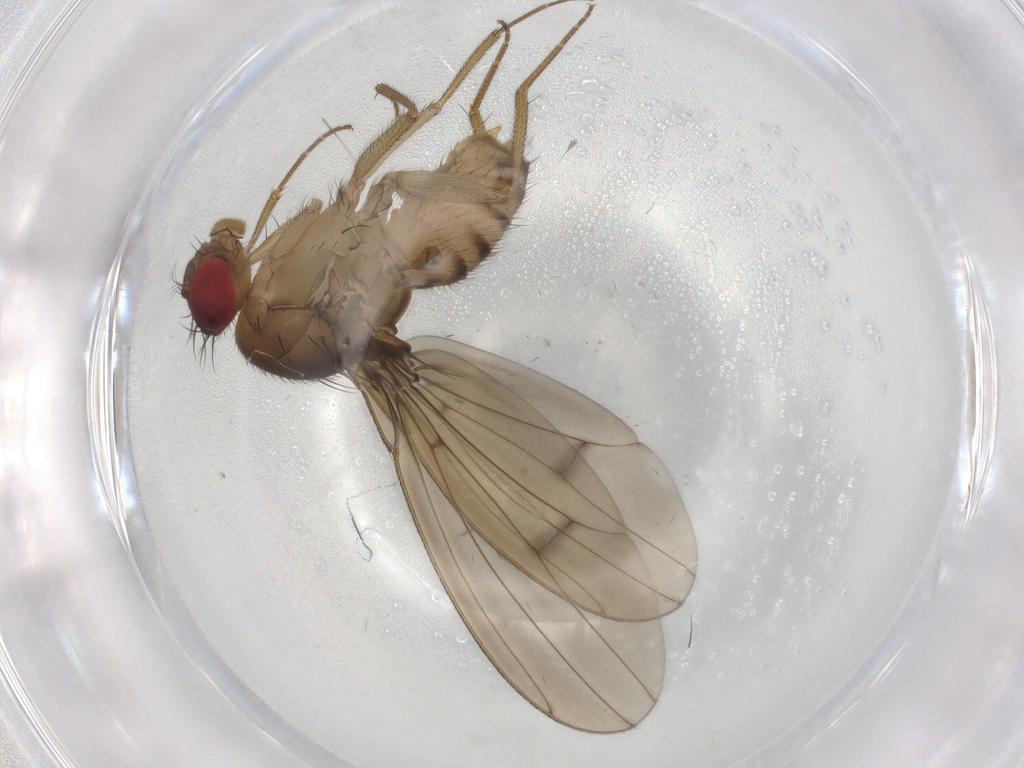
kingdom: Animalia
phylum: Arthropoda
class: Insecta
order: Diptera
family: Drosophilidae
